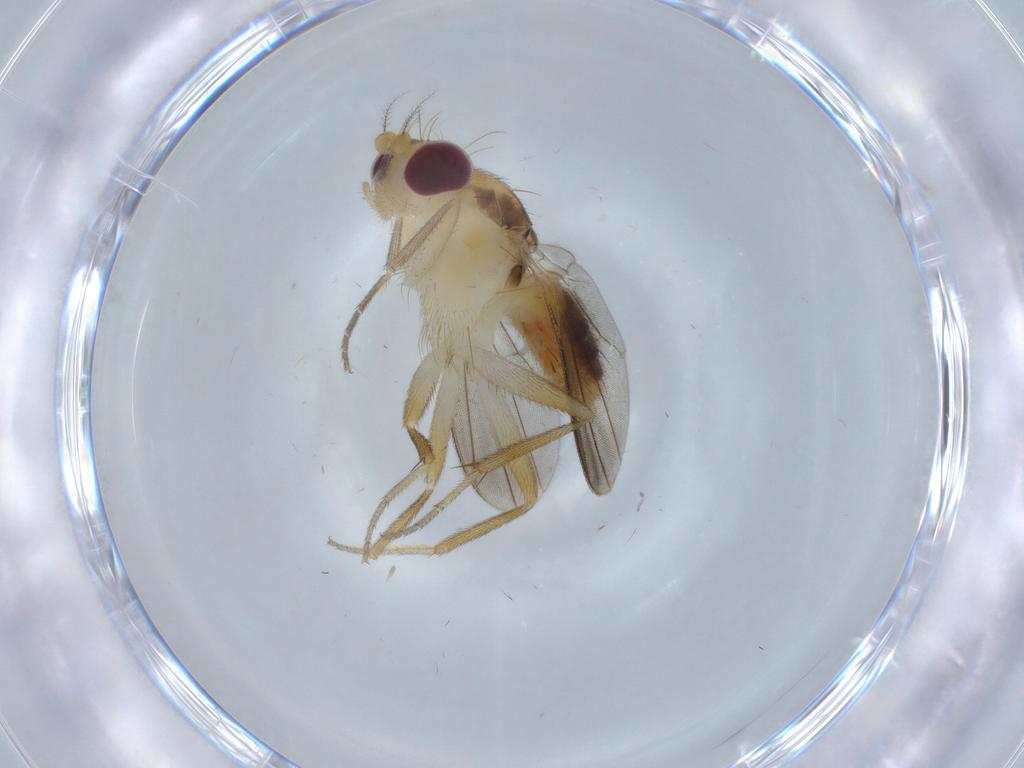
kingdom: Animalia
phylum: Arthropoda
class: Insecta
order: Diptera
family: Agromyzidae
